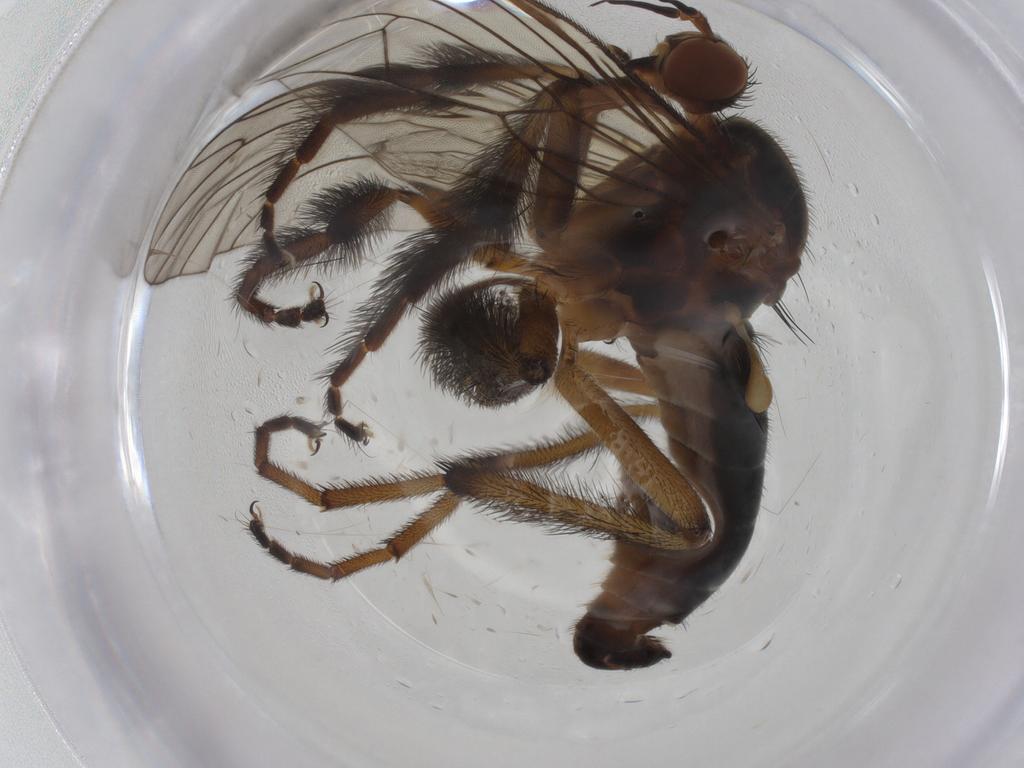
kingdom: Animalia
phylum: Arthropoda
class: Insecta
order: Diptera
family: Empididae
